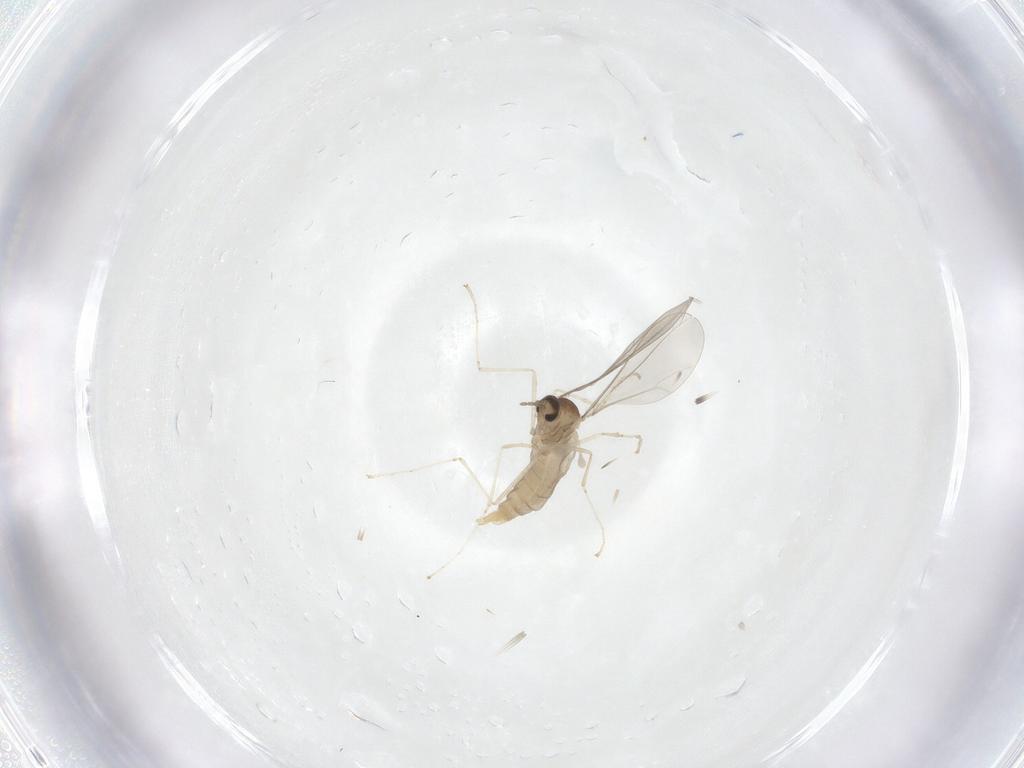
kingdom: Animalia
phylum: Arthropoda
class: Insecta
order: Diptera
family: Cecidomyiidae
